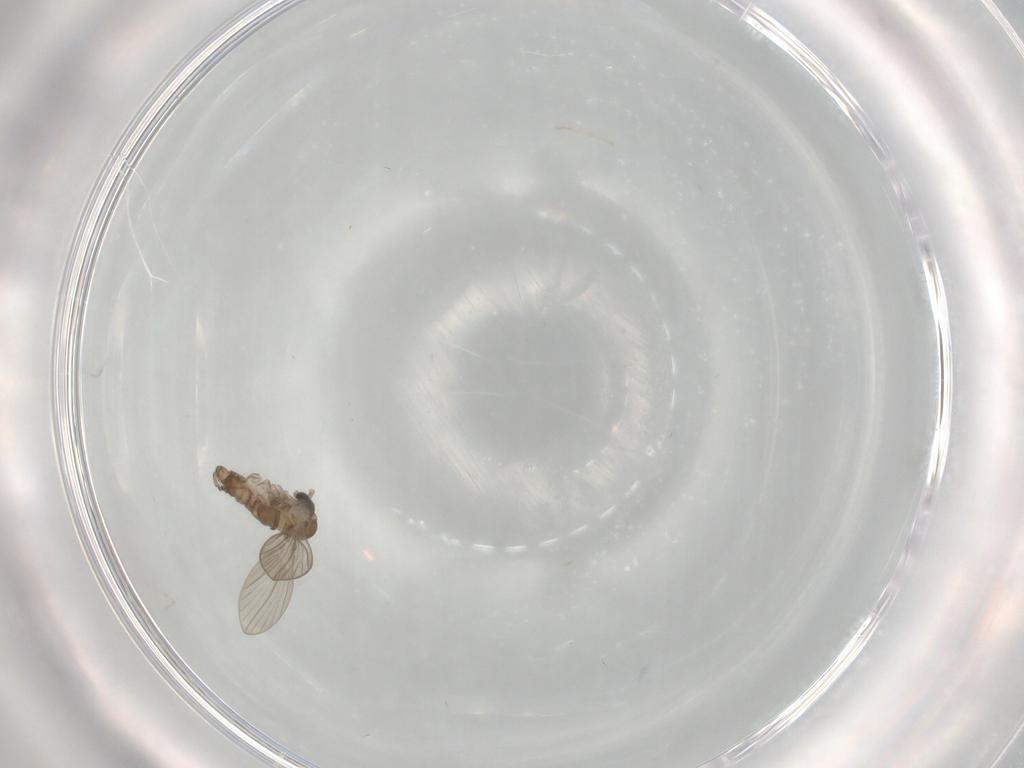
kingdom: Animalia
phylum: Arthropoda
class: Insecta
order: Diptera
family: Psychodidae
